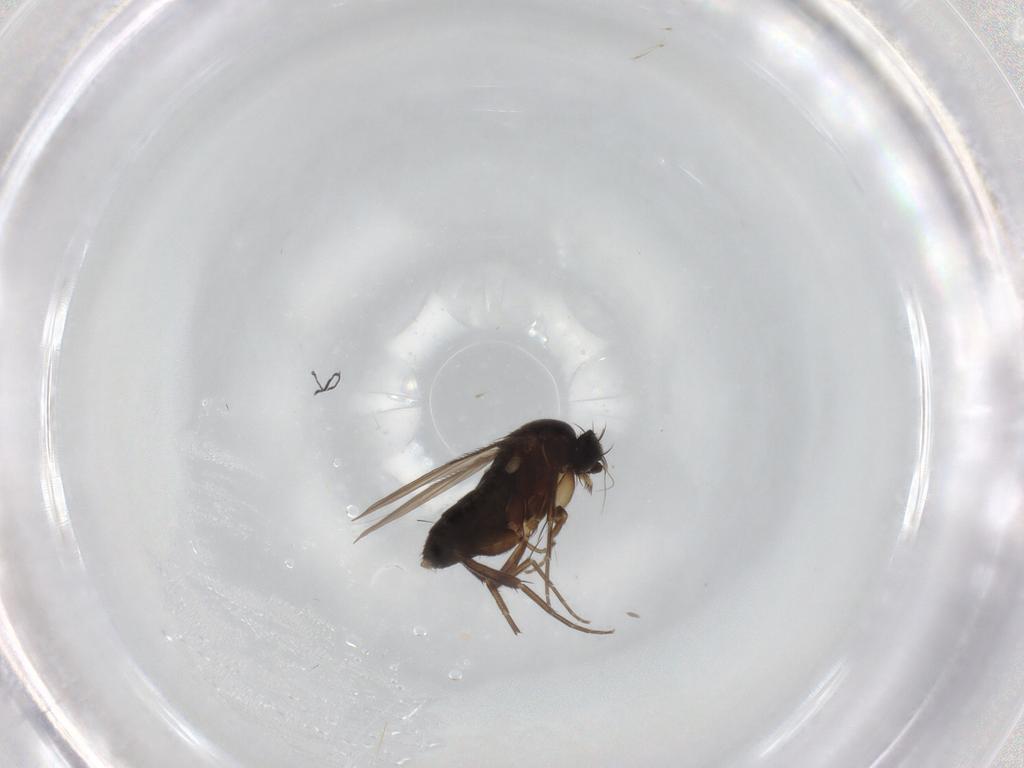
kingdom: Animalia
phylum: Arthropoda
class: Insecta
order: Diptera
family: Phoridae
